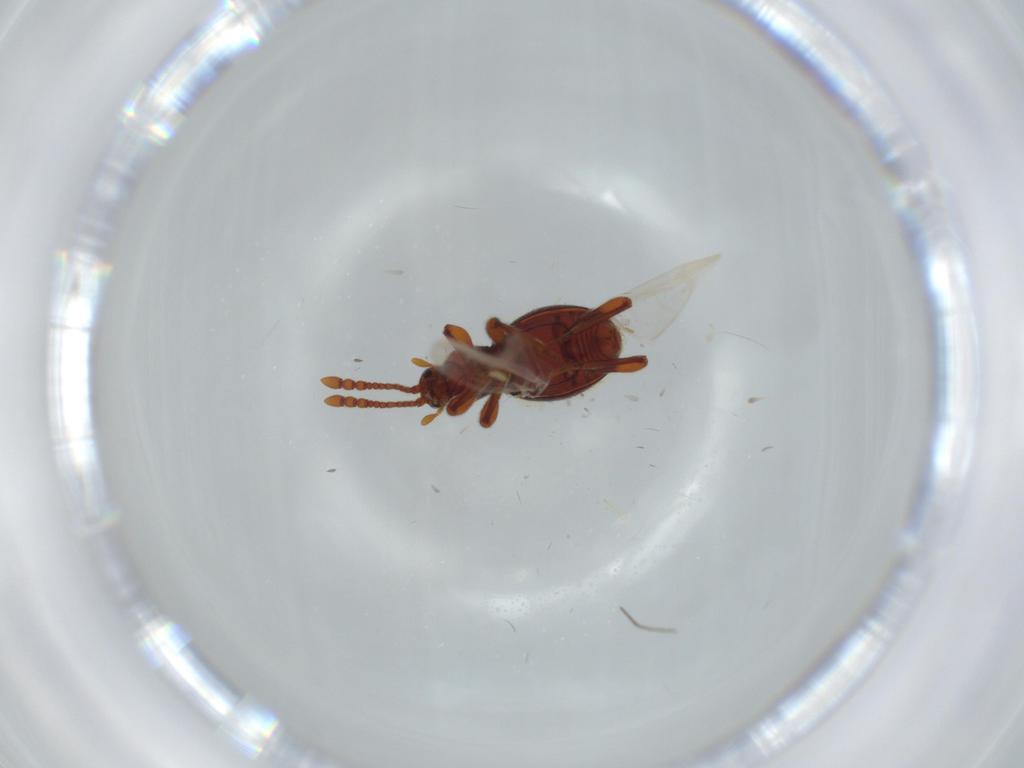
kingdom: Animalia
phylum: Arthropoda
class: Insecta
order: Coleoptera
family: Staphylinidae
